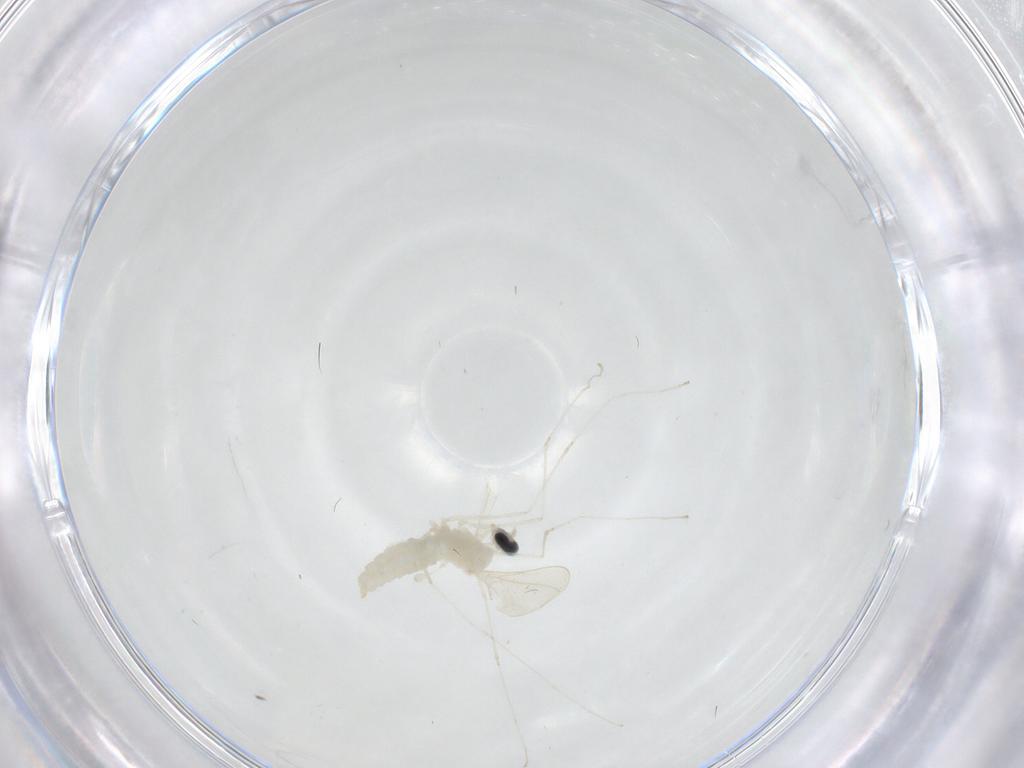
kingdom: Animalia
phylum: Arthropoda
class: Insecta
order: Diptera
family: Cecidomyiidae
